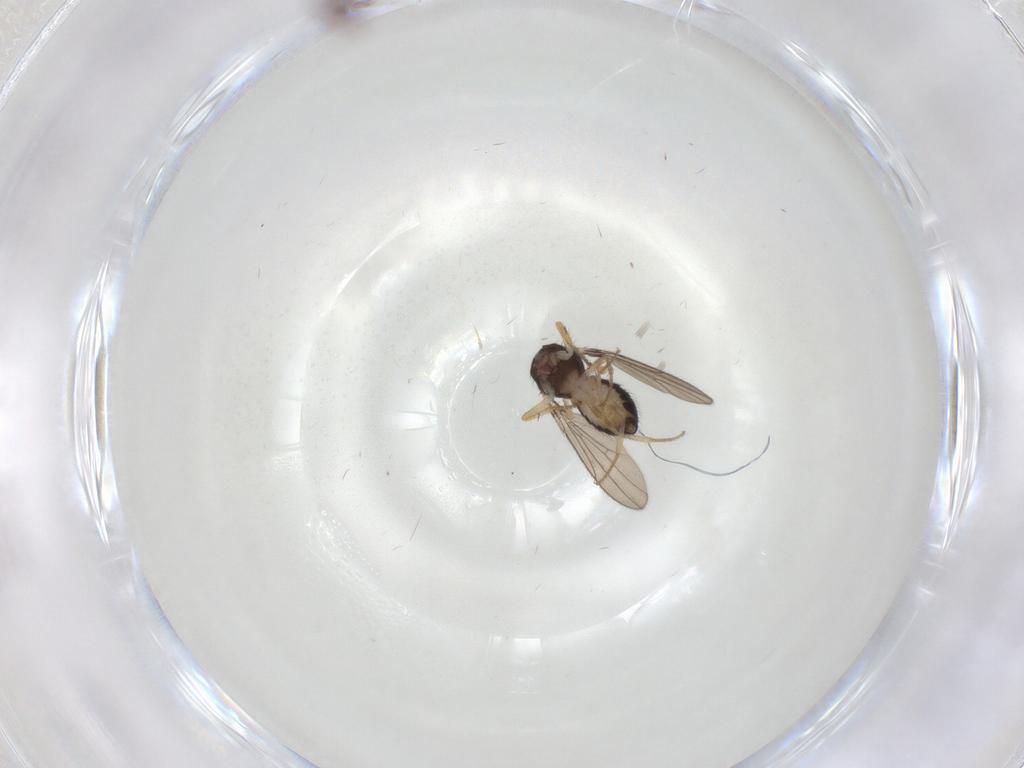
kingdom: Animalia
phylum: Arthropoda
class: Insecta
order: Diptera
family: Drosophilidae
